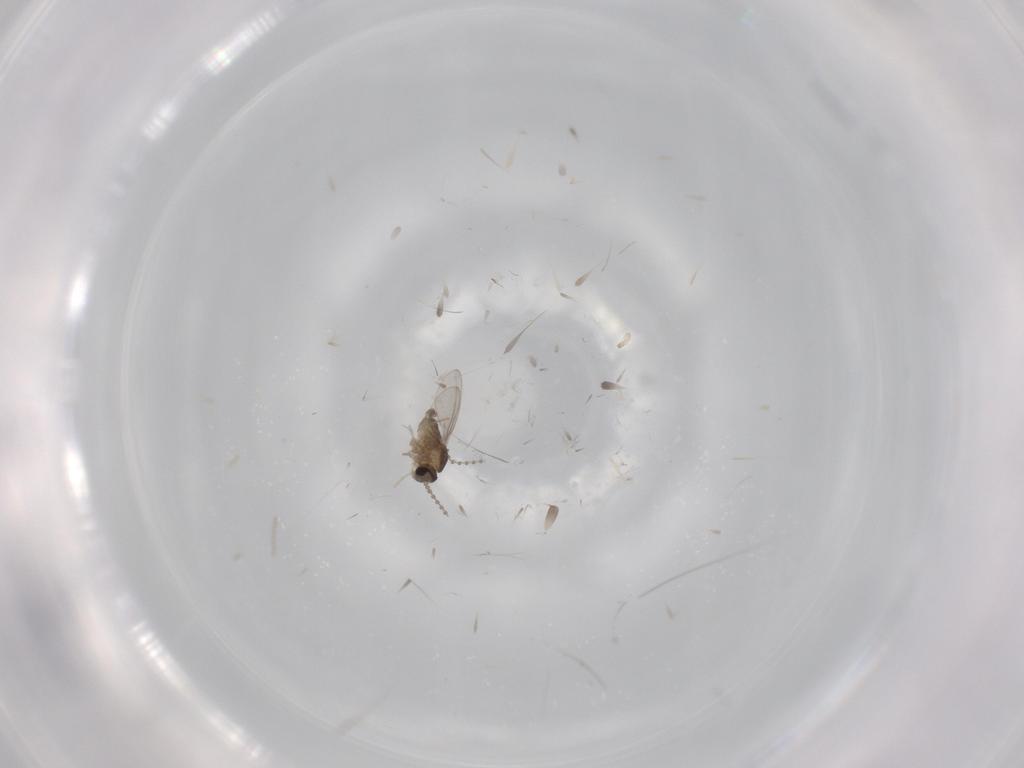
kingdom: Animalia
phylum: Arthropoda
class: Insecta
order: Diptera
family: Cecidomyiidae
